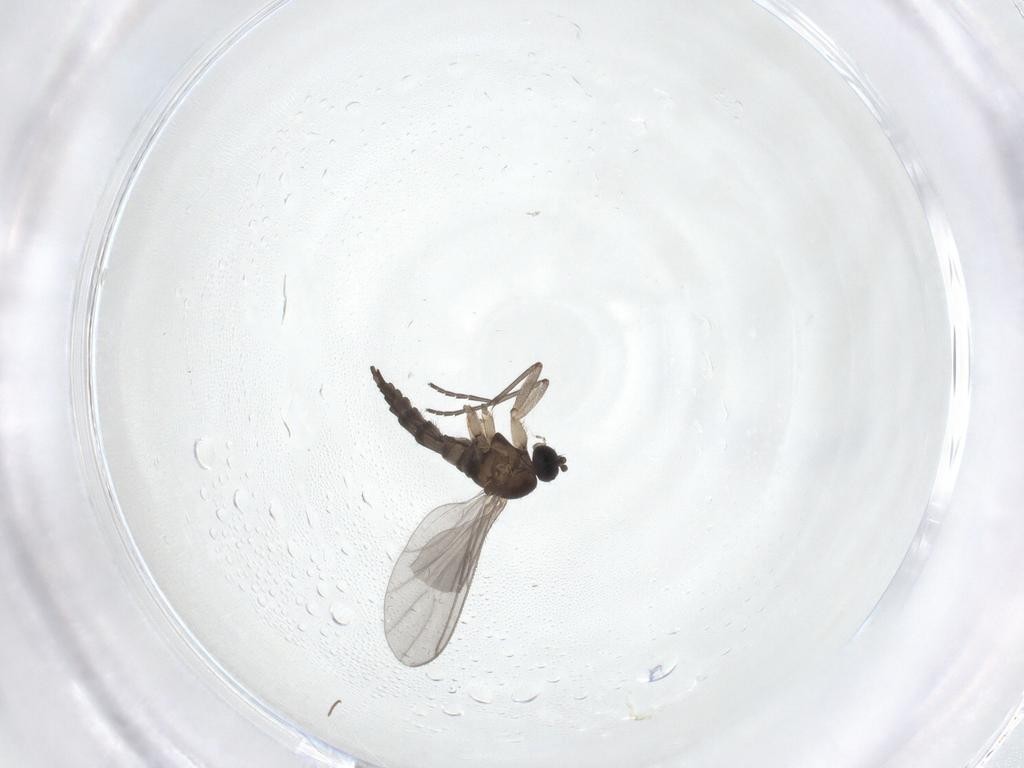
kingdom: Animalia
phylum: Arthropoda
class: Insecta
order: Diptera
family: Sciaridae
